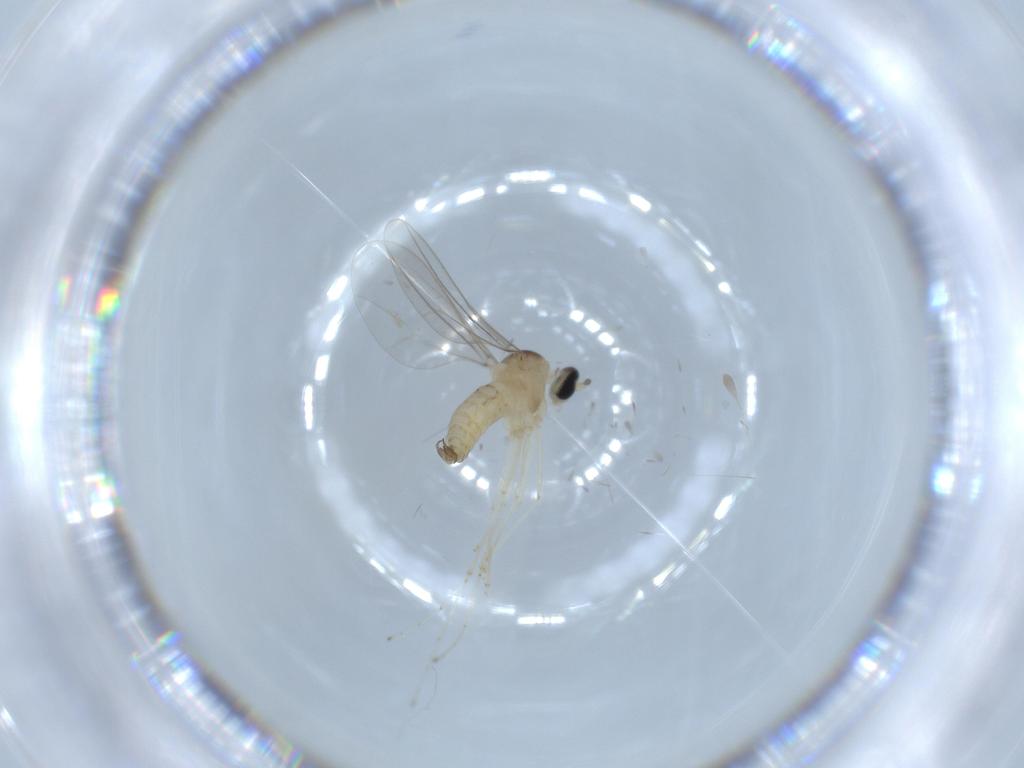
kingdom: Animalia
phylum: Arthropoda
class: Insecta
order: Diptera
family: Cecidomyiidae
